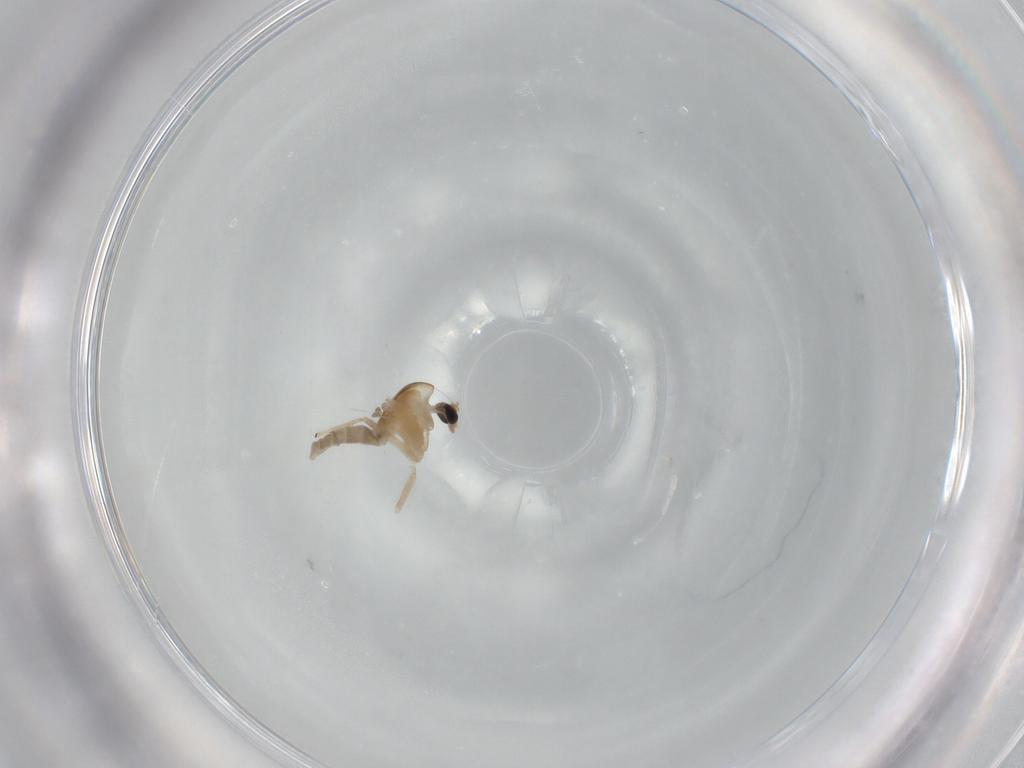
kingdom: Animalia
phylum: Arthropoda
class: Insecta
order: Diptera
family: Chironomidae
